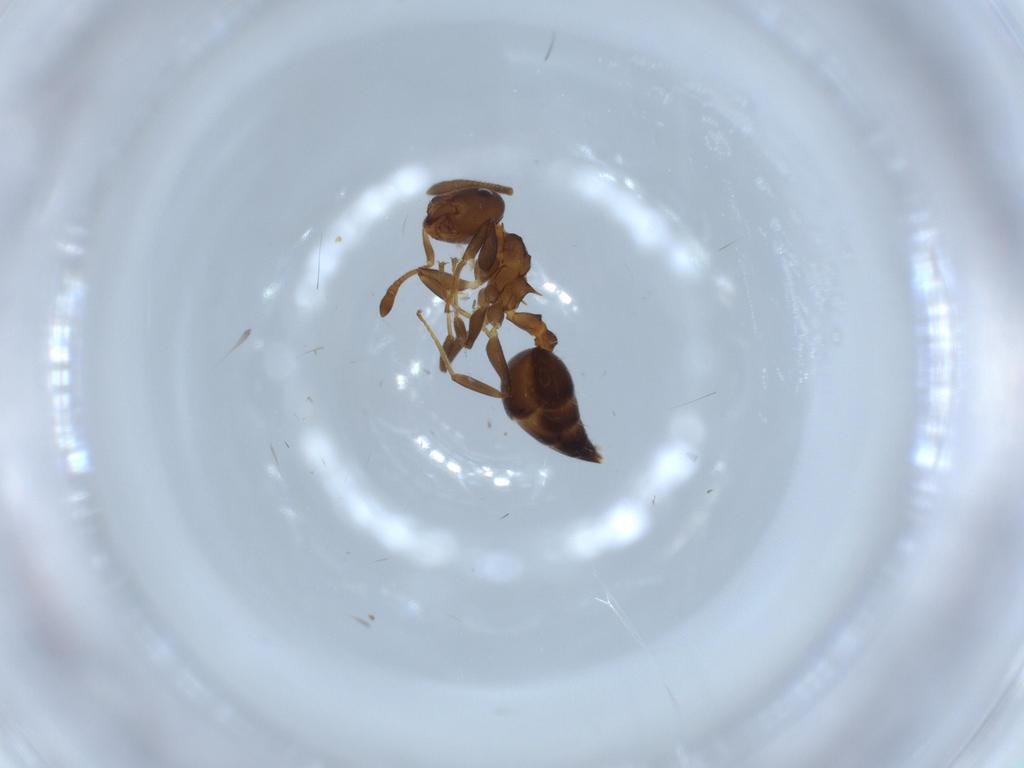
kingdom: Animalia
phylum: Arthropoda
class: Insecta
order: Hymenoptera
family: Formicidae
